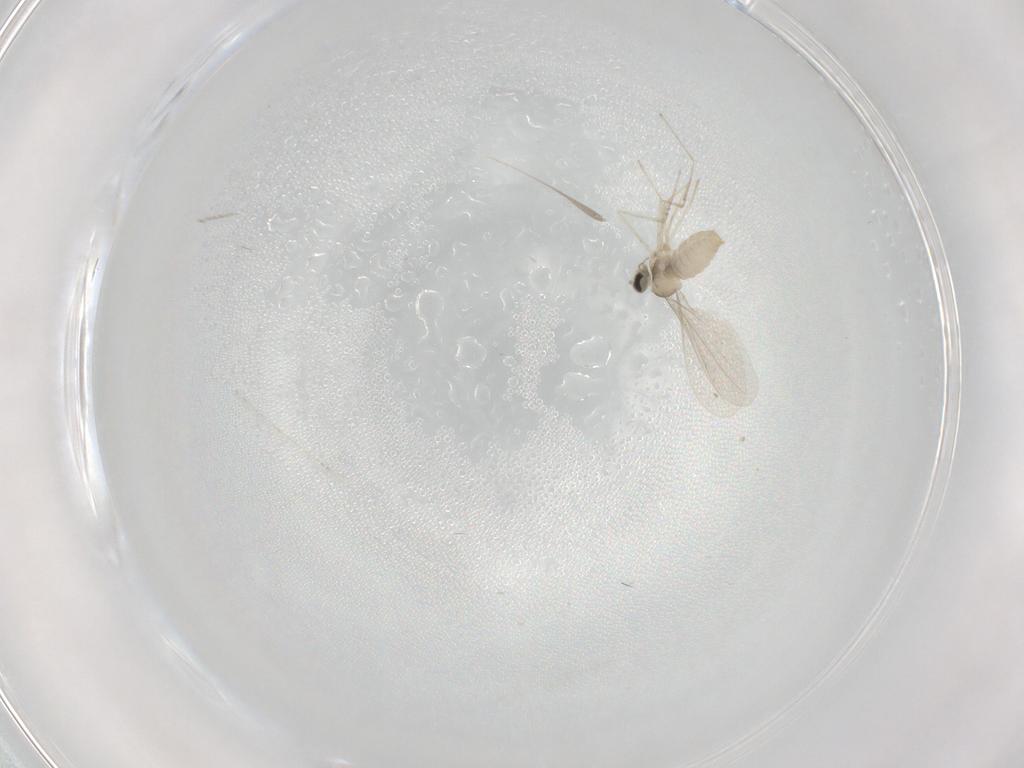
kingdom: Animalia
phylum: Arthropoda
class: Insecta
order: Diptera
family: Cecidomyiidae
